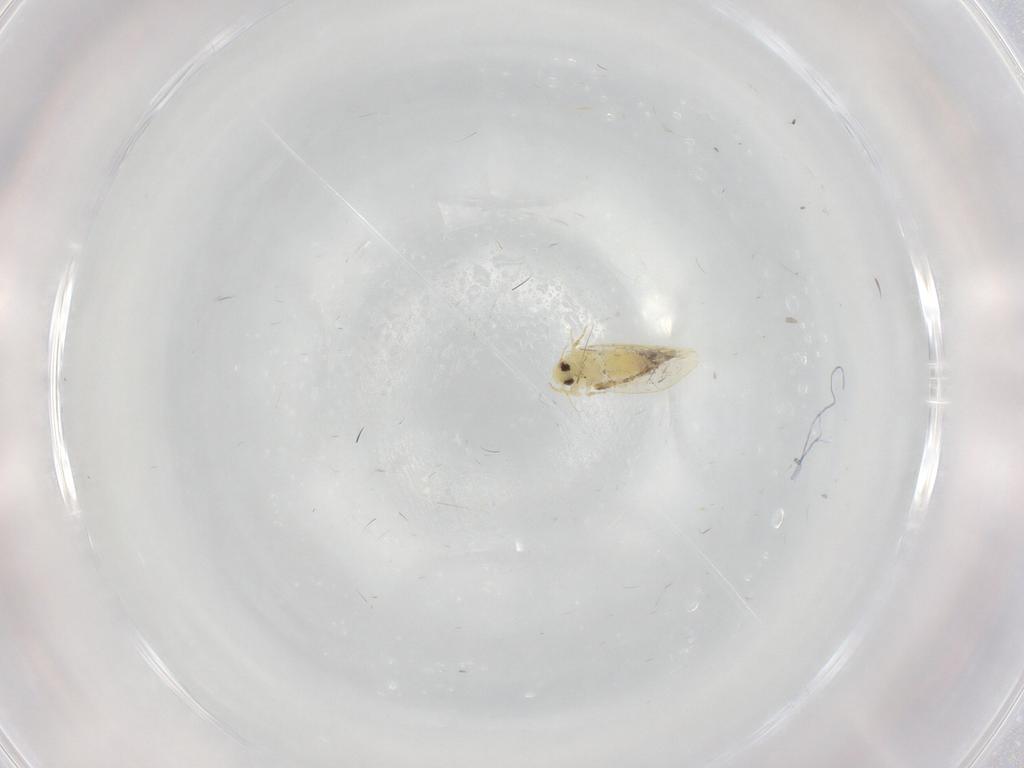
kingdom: Animalia
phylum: Arthropoda
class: Insecta
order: Hemiptera
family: Aleyrodidae
